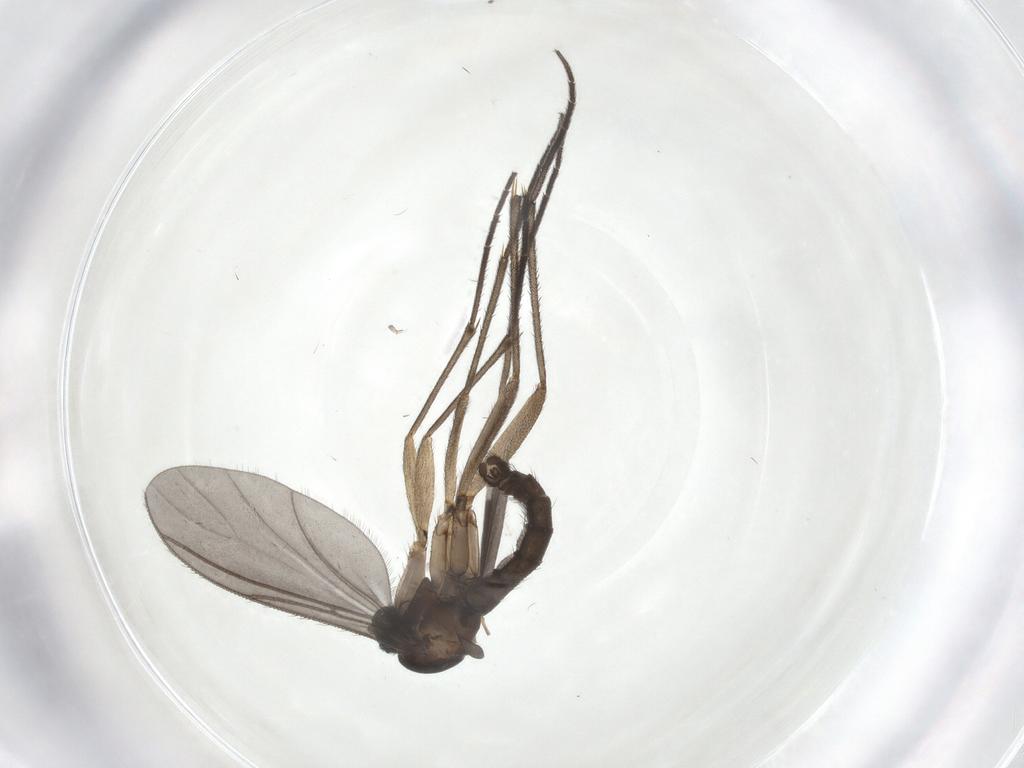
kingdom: Animalia
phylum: Arthropoda
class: Insecta
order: Diptera
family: Sciaridae
